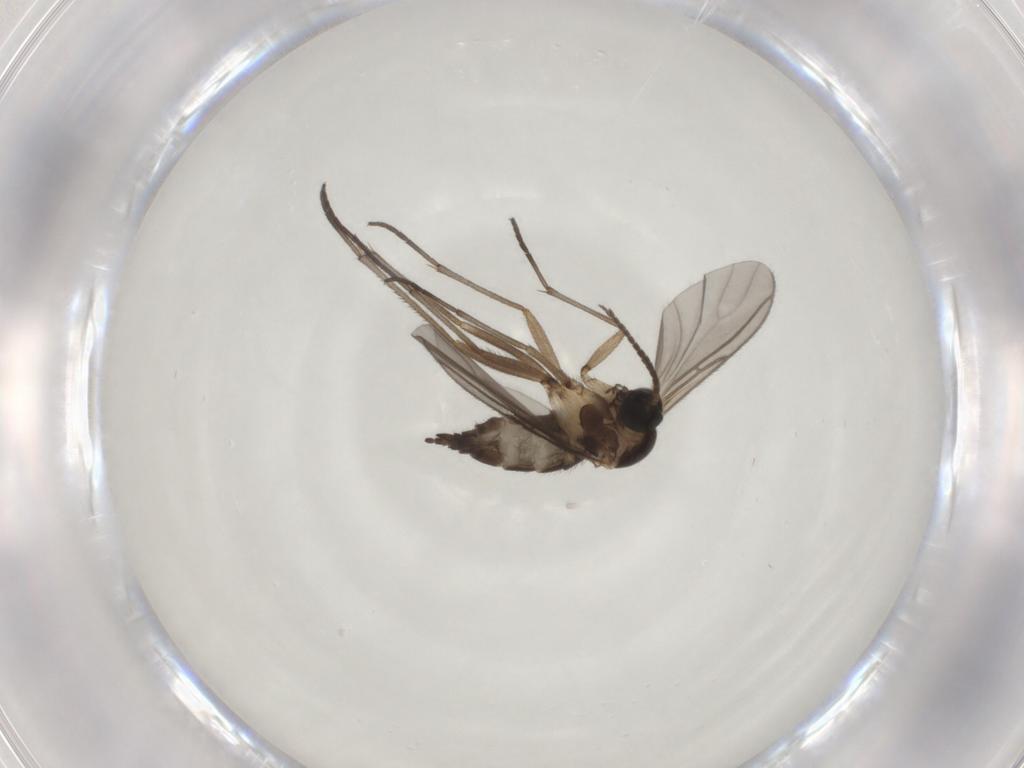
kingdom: Animalia
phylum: Arthropoda
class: Insecta
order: Diptera
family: Sciaridae
